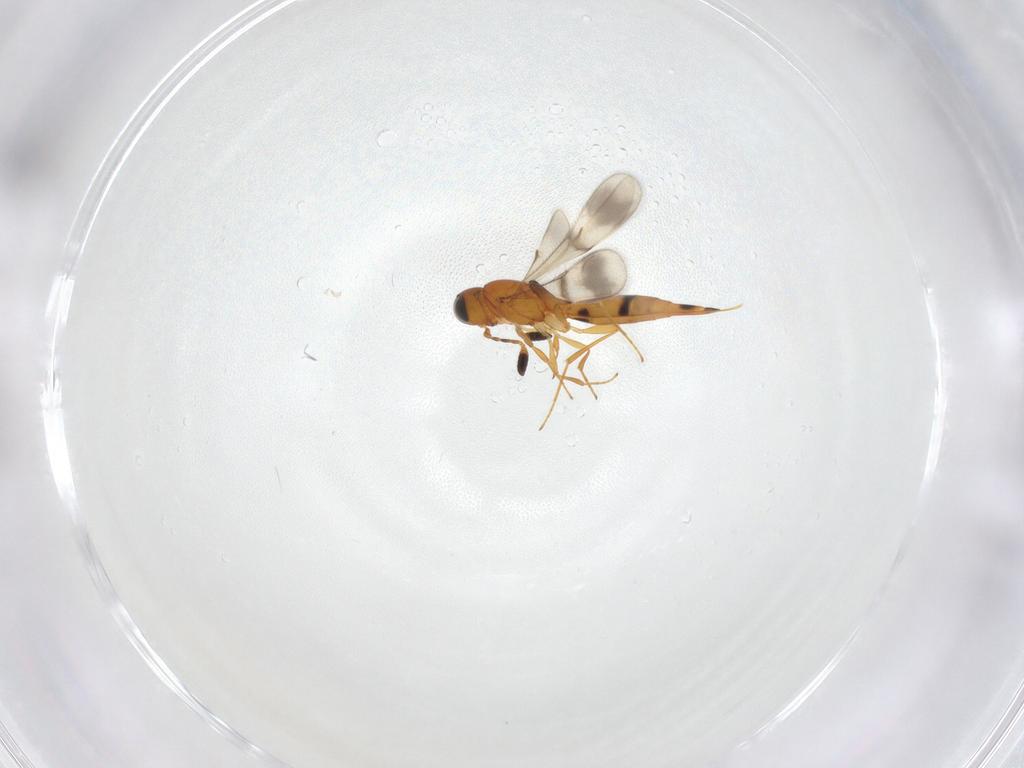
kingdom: Animalia
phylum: Arthropoda
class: Insecta
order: Hymenoptera
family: Scelionidae
